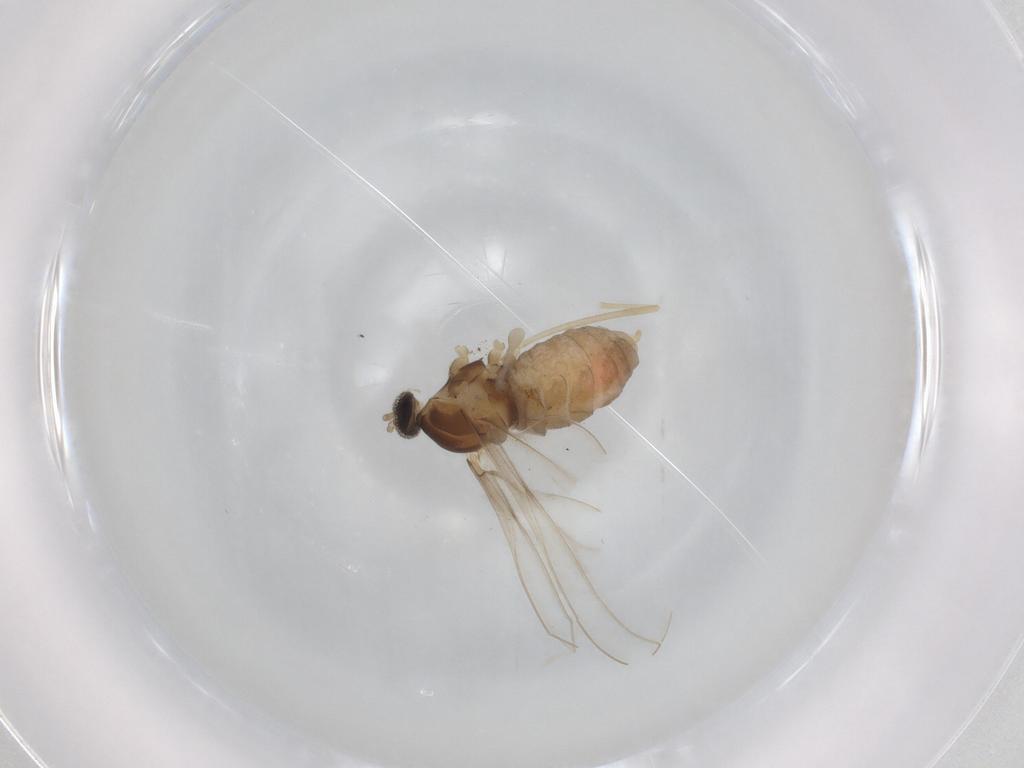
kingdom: Animalia
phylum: Arthropoda
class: Insecta
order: Diptera
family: Cecidomyiidae
